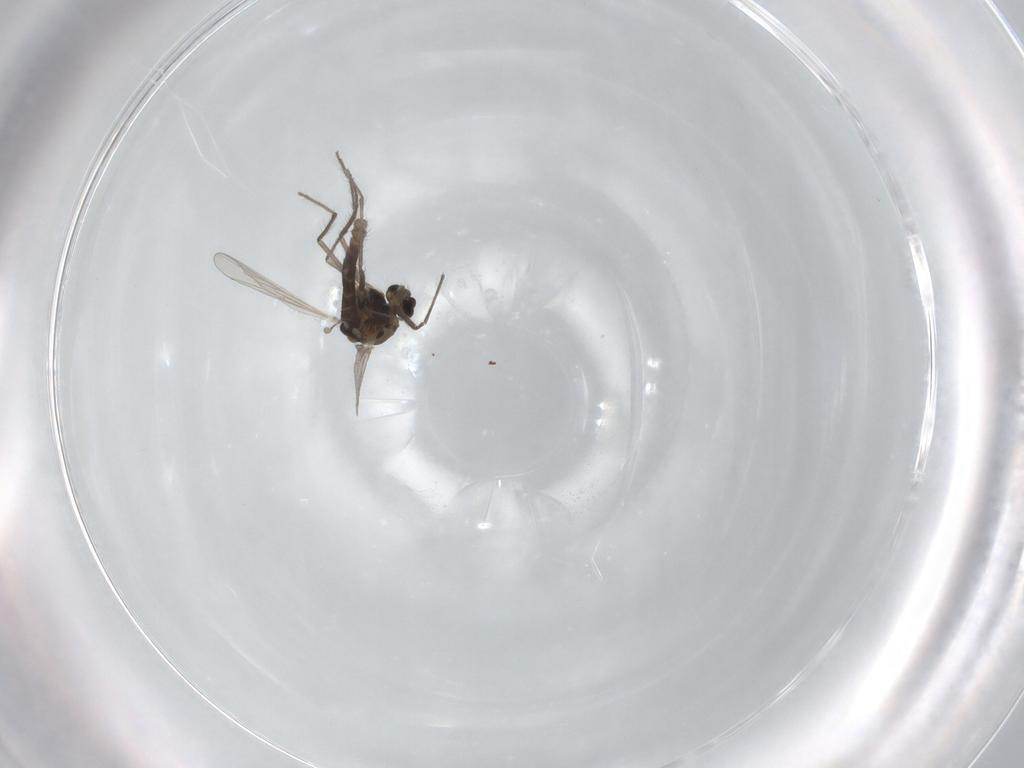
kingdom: Animalia
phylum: Arthropoda
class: Insecta
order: Diptera
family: Chironomidae
